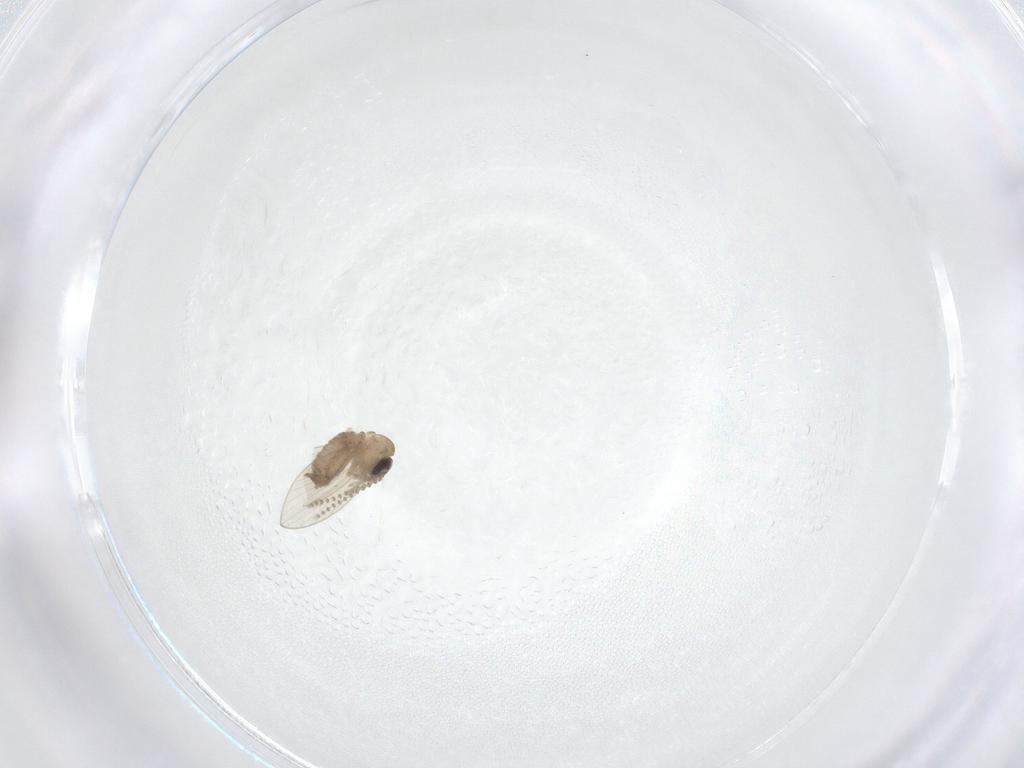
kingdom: Animalia
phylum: Arthropoda
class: Insecta
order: Diptera
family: Psychodidae
